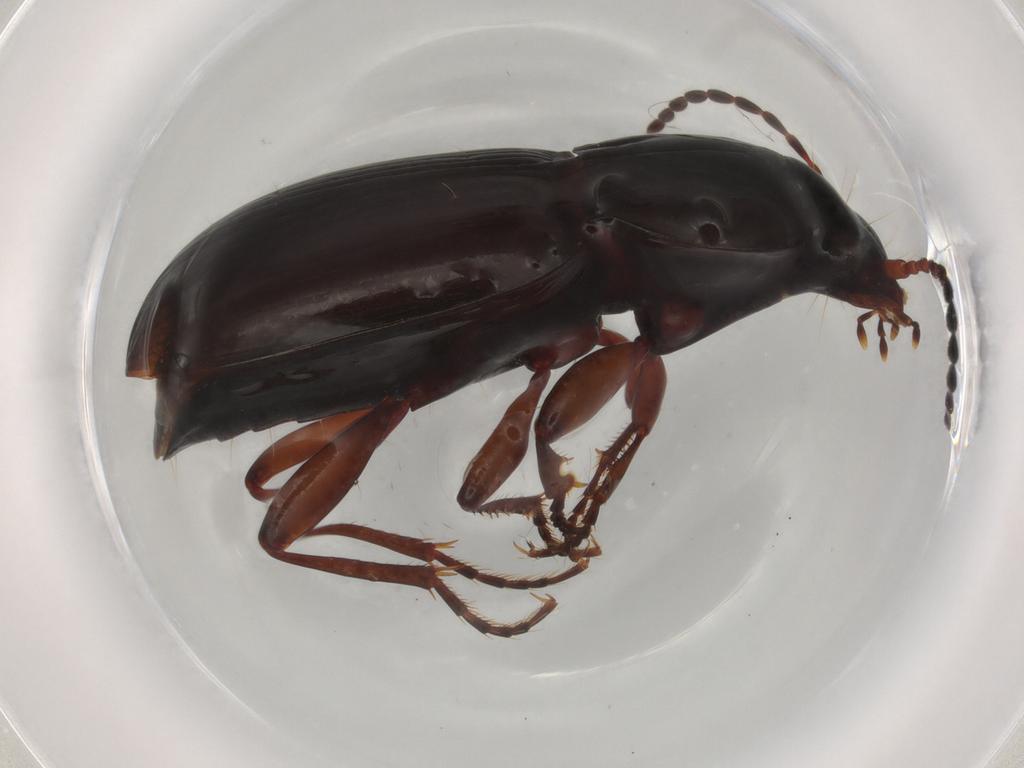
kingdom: Animalia
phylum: Arthropoda
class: Insecta
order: Coleoptera
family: Carabidae
